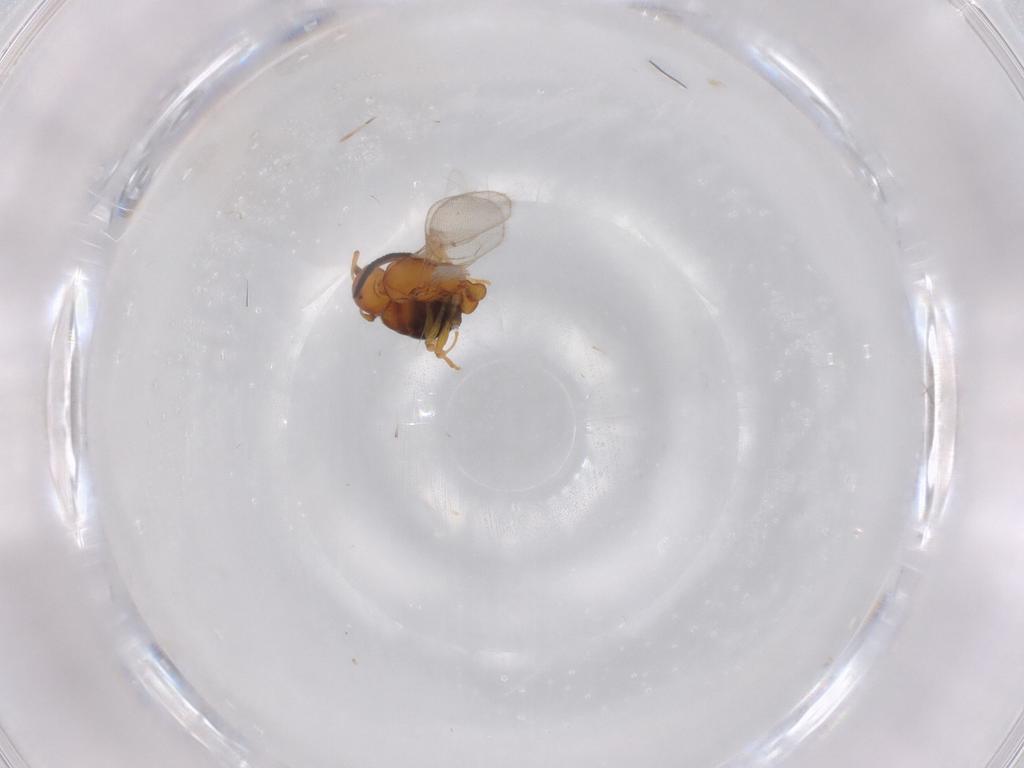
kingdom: Animalia
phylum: Arthropoda
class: Insecta
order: Hymenoptera
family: Formicidae
